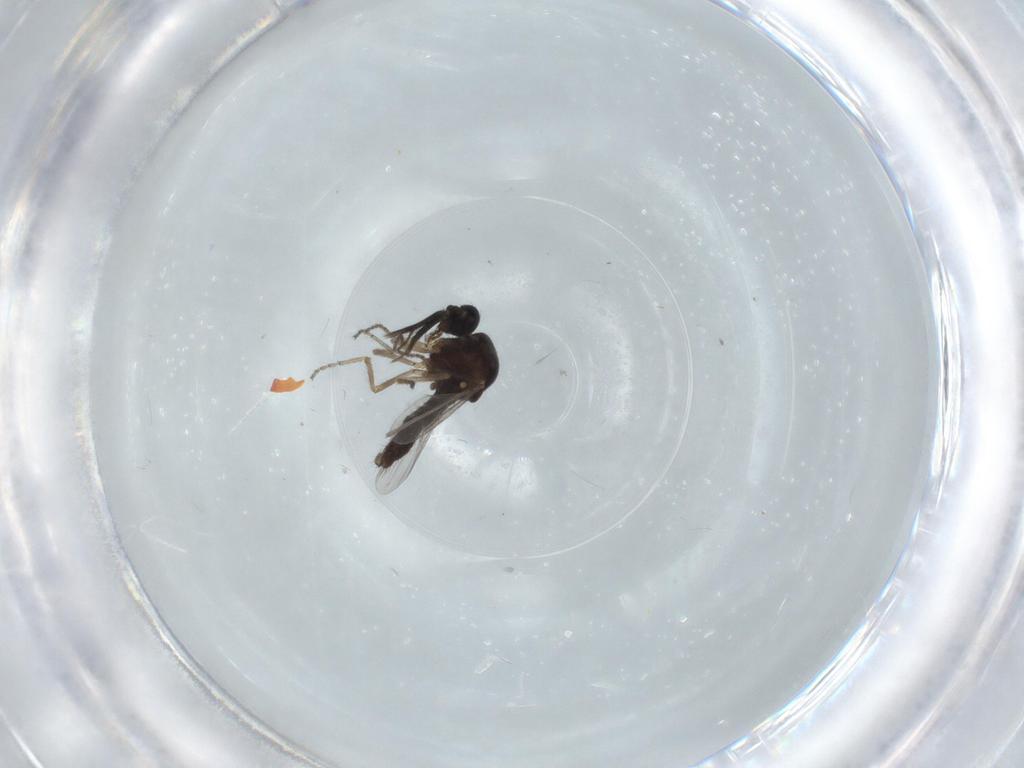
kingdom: Animalia
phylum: Arthropoda
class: Insecta
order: Diptera
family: Ceratopogonidae
